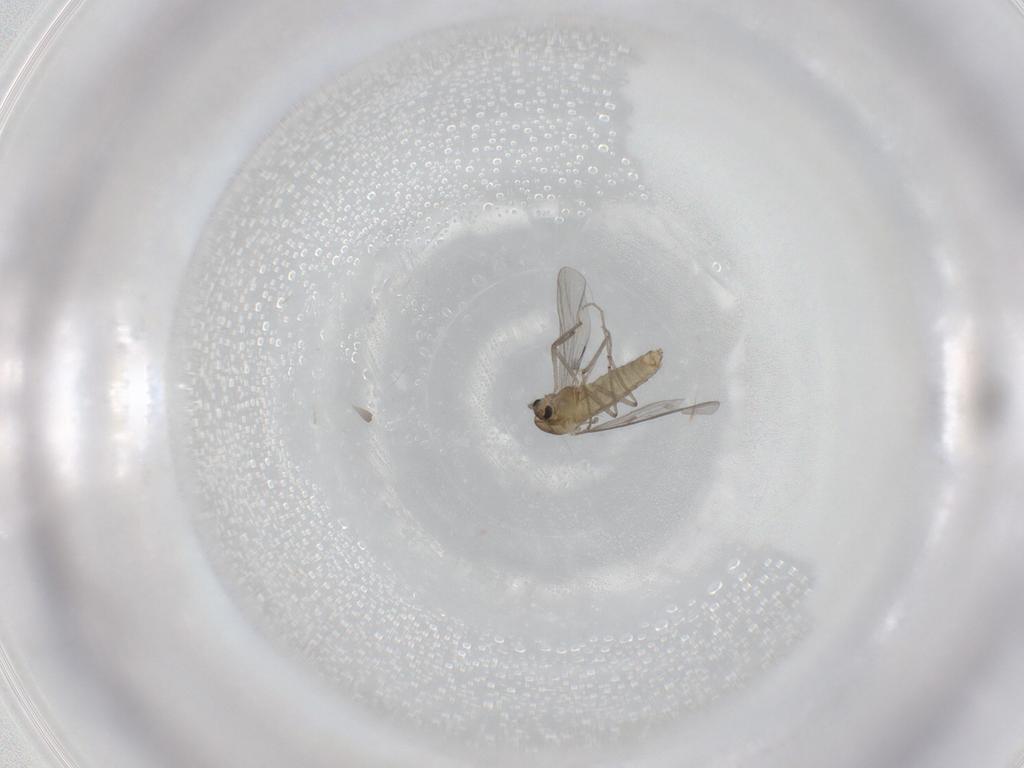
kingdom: Animalia
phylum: Arthropoda
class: Insecta
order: Diptera
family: Chironomidae
